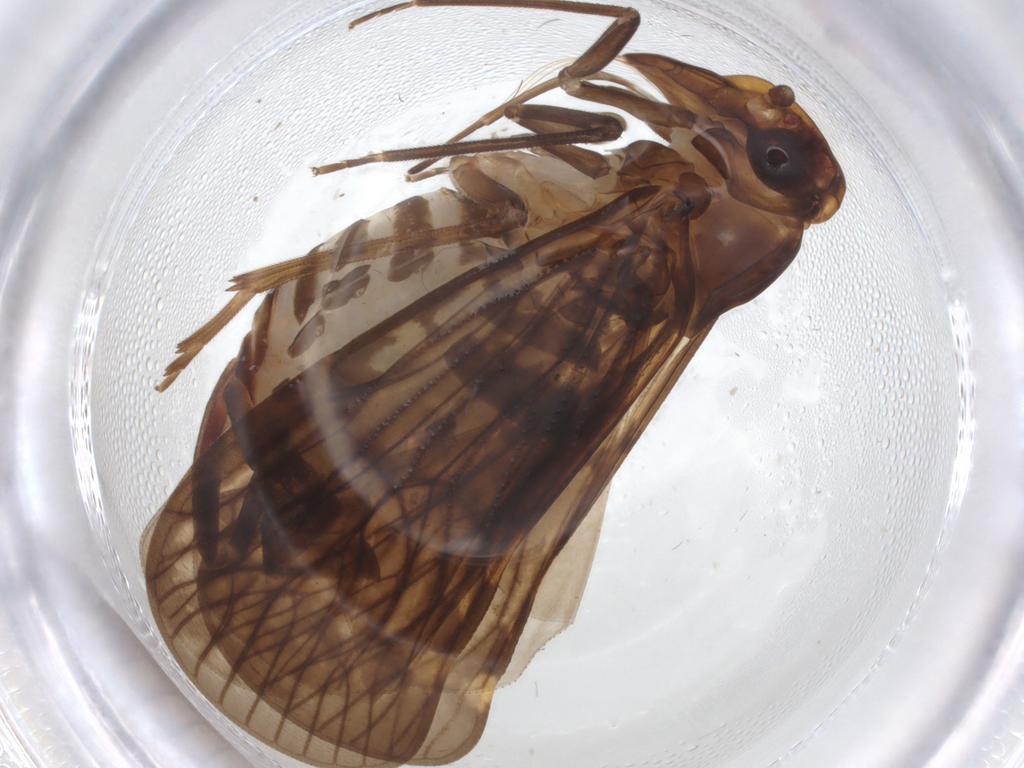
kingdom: Animalia
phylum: Arthropoda
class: Insecta
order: Hemiptera
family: Cixiidae
